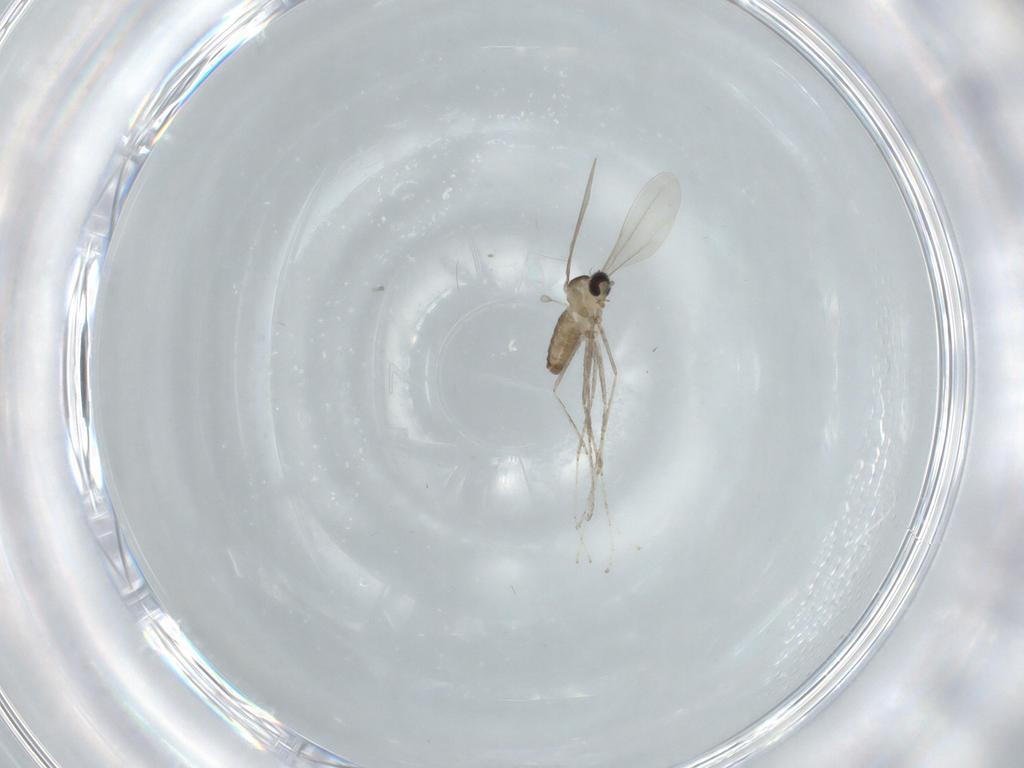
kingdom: Animalia
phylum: Arthropoda
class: Insecta
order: Diptera
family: Cecidomyiidae
